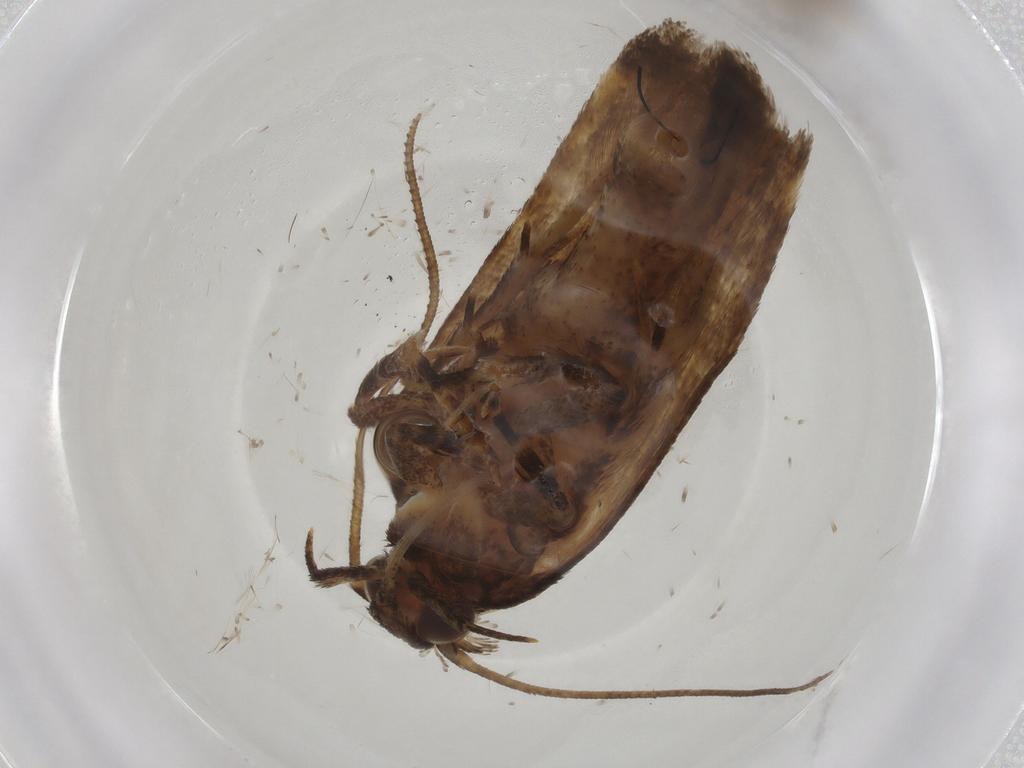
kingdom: Animalia
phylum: Arthropoda
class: Insecta
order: Lepidoptera
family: Gelechiidae
